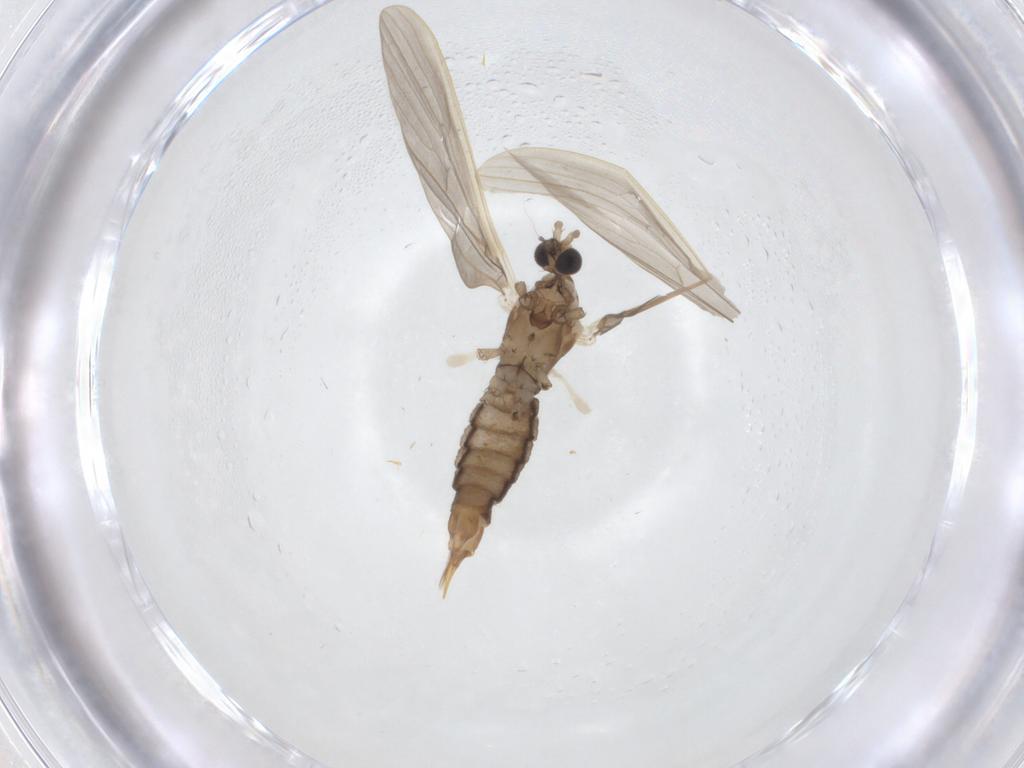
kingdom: Animalia
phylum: Arthropoda
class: Insecta
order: Diptera
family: Limoniidae
